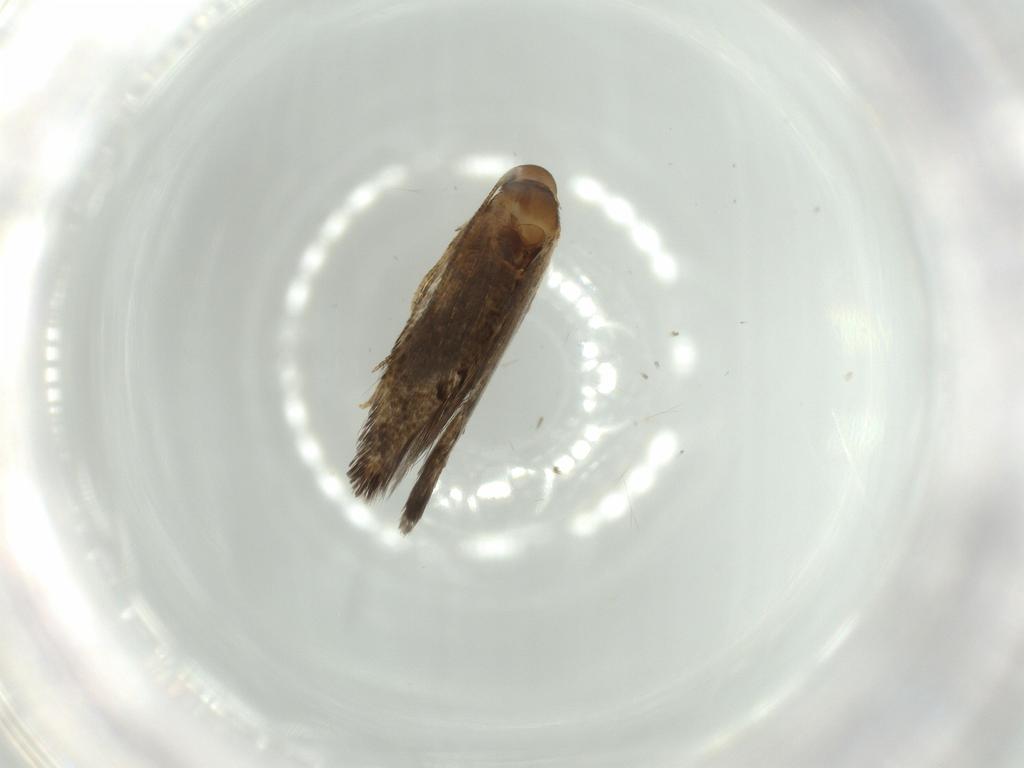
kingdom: Animalia
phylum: Arthropoda
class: Insecta
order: Lepidoptera
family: Gelechiidae
